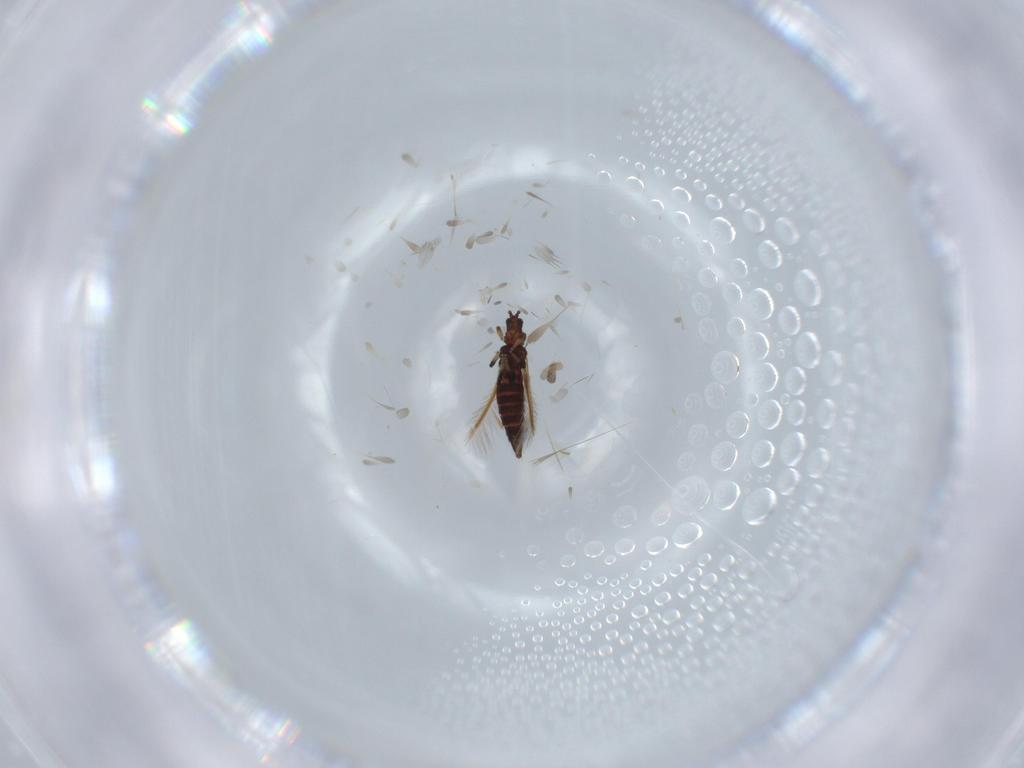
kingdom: Animalia
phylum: Arthropoda
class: Insecta
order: Thysanoptera
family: Thripidae
